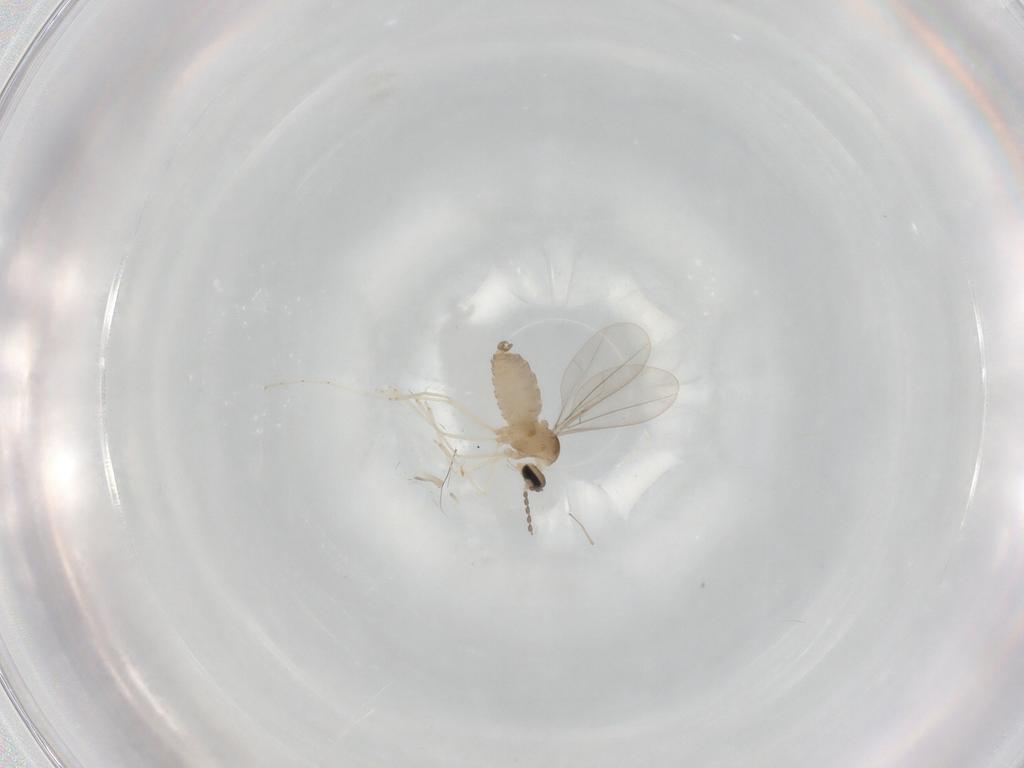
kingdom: Animalia
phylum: Arthropoda
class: Insecta
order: Diptera
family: Cecidomyiidae
